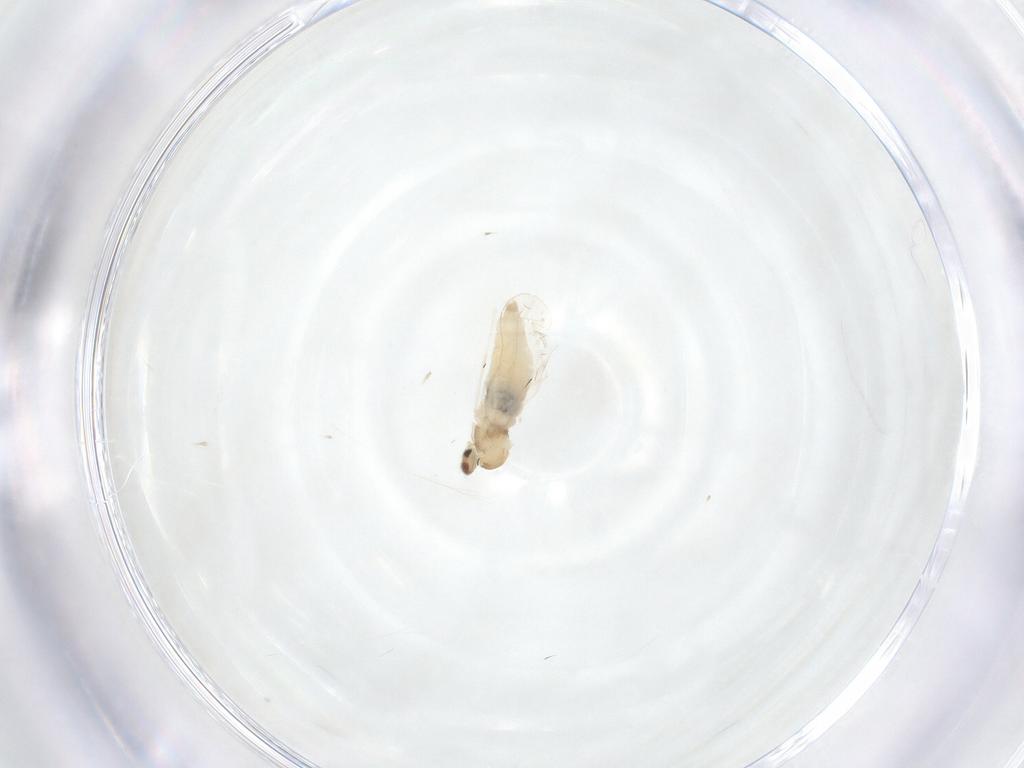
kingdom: Animalia
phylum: Arthropoda
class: Insecta
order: Diptera
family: Cecidomyiidae
